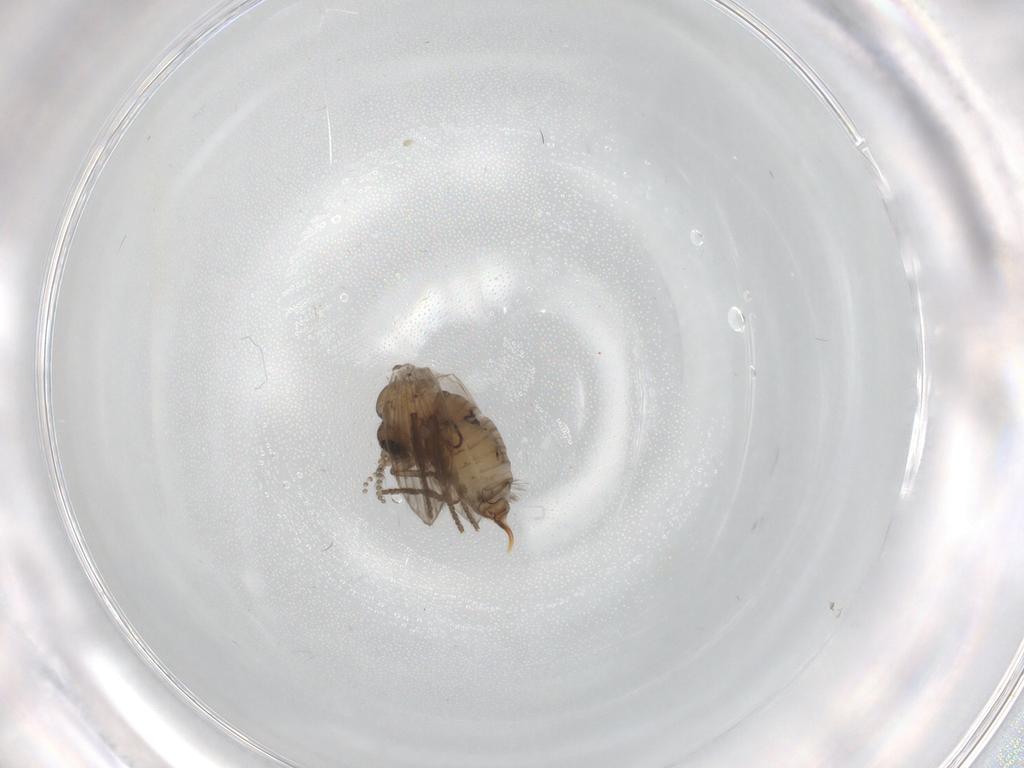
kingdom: Animalia
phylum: Arthropoda
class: Insecta
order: Diptera
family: Psychodidae
